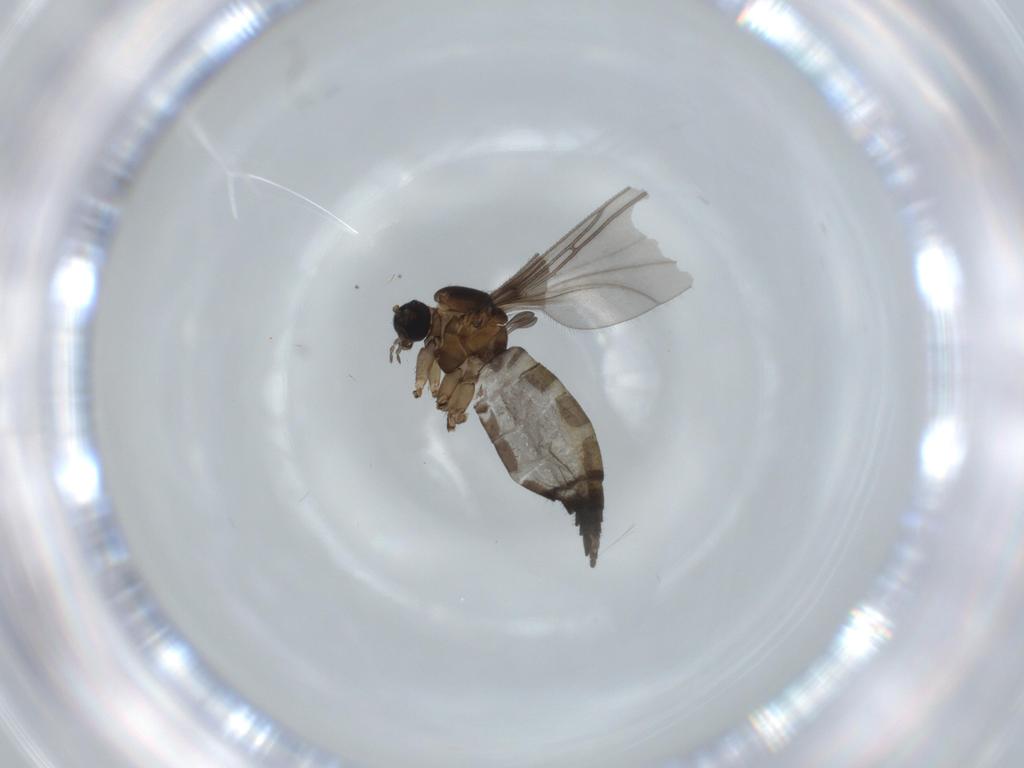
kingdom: Animalia
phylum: Arthropoda
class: Insecta
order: Diptera
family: Sciaridae
